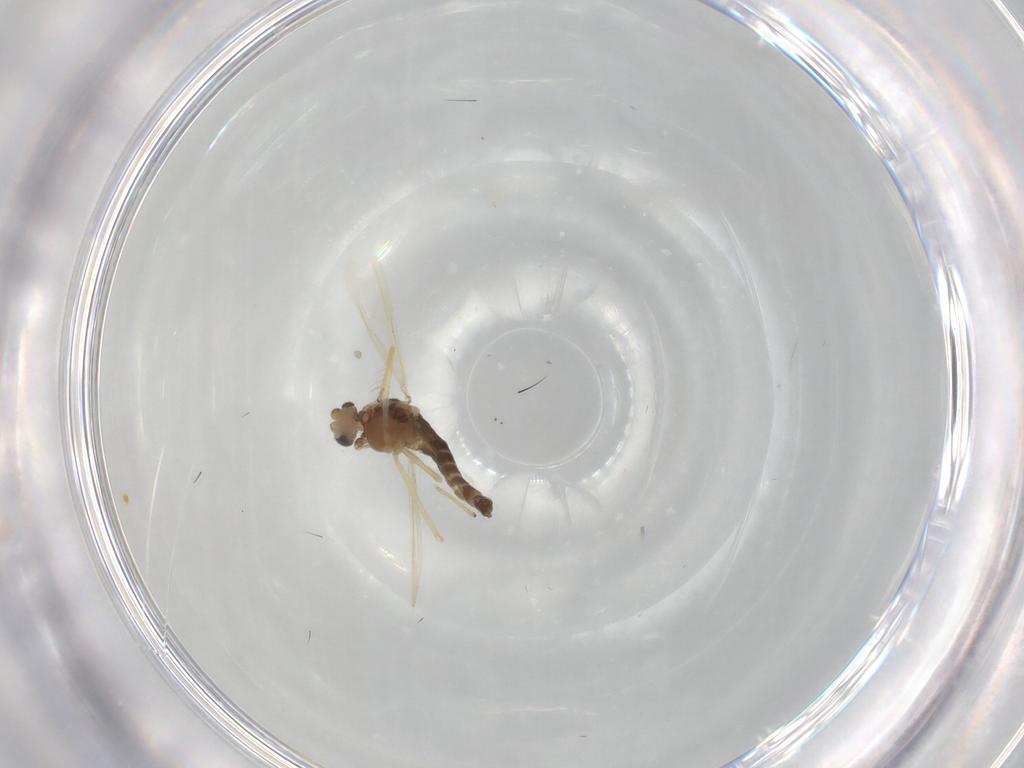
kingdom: Animalia
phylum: Arthropoda
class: Insecta
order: Diptera
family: Chironomidae
